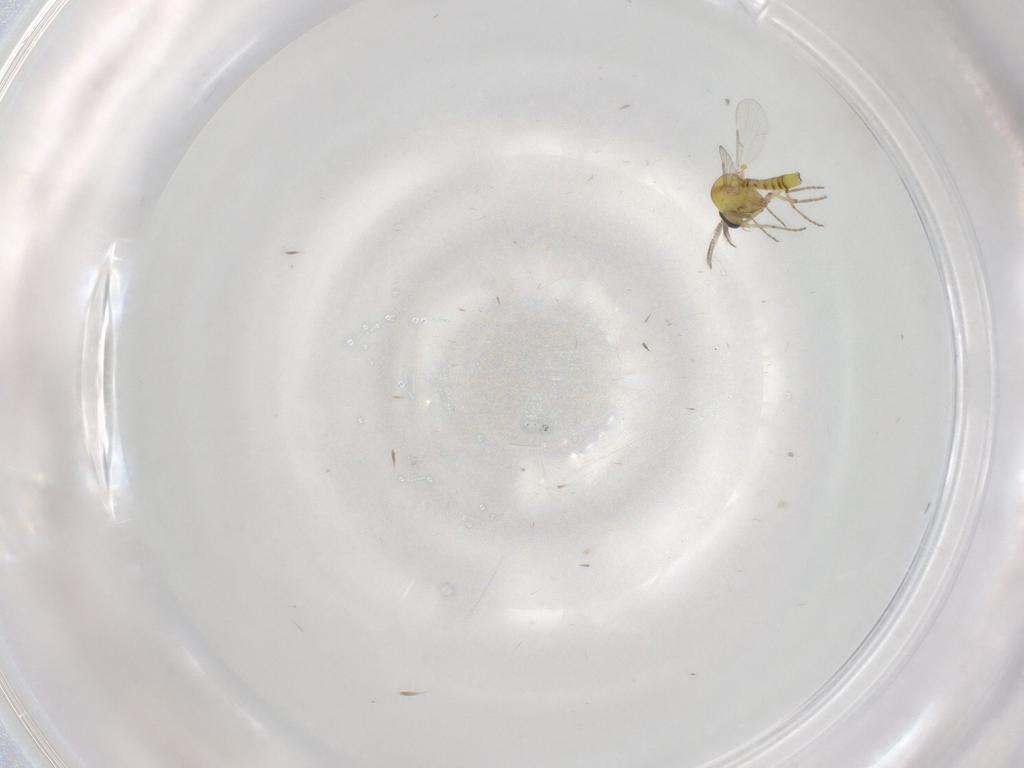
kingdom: Animalia
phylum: Arthropoda
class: Insecta
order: Diptera
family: Ceratopogonidae
